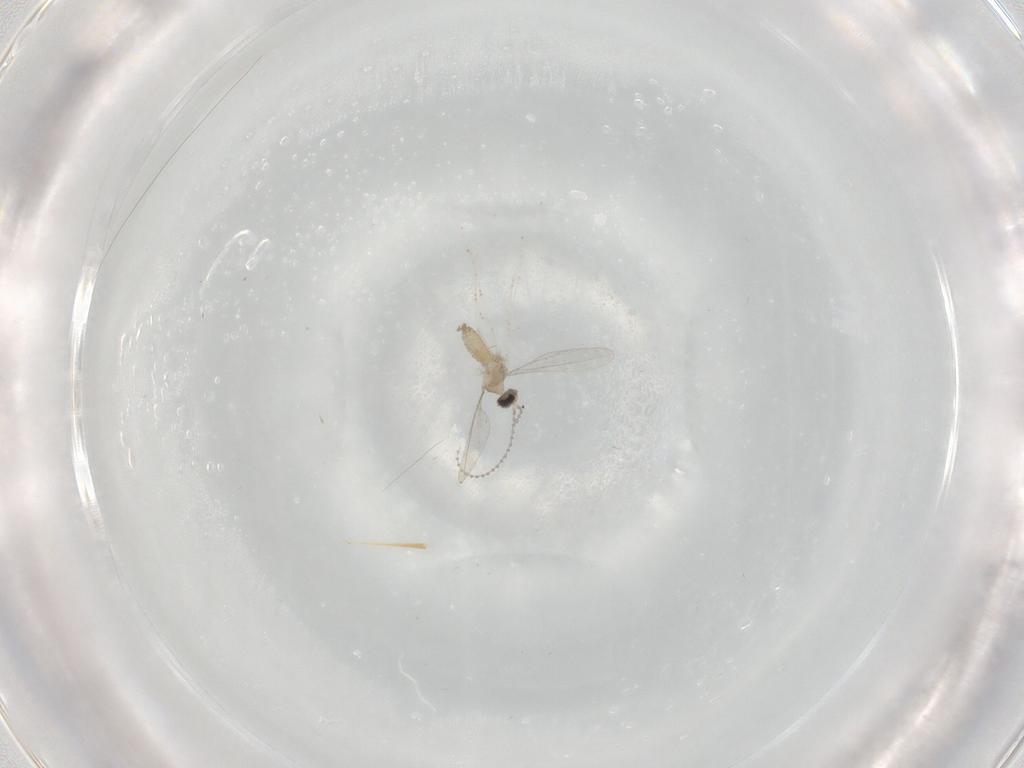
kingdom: Animalia
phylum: Arthropoda
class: Insecta
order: Diptera
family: Cecidomyiidae
